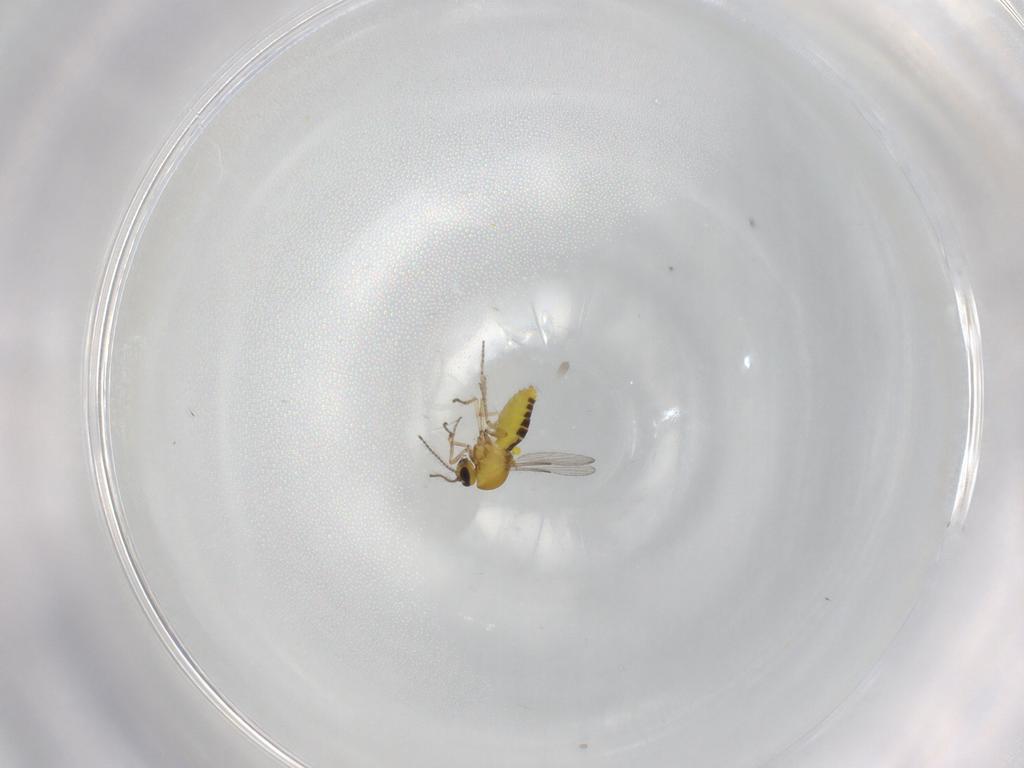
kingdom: Animalia
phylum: Arthropoda
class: Insecta
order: Diptera
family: Ceratopogonidae
